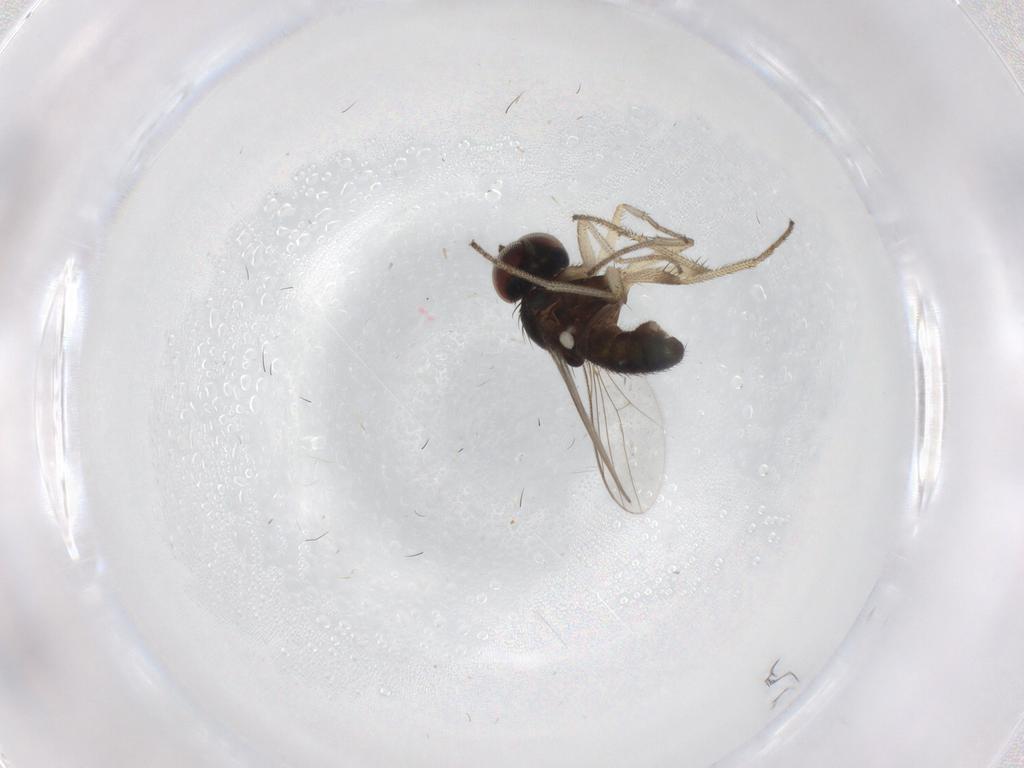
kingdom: Animalia
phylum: Arthropoda
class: Insecta
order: Diptera
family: Dolichopodidae
